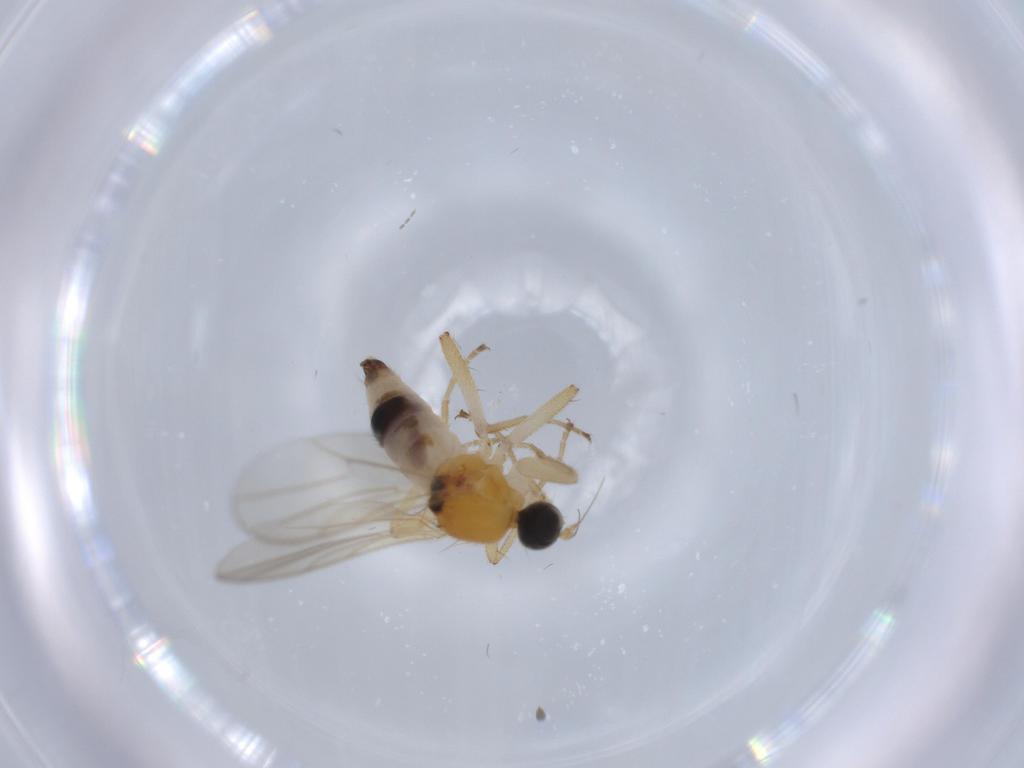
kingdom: Animalia
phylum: Arthropoda
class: Insecta
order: Diptera
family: Hybotidae
